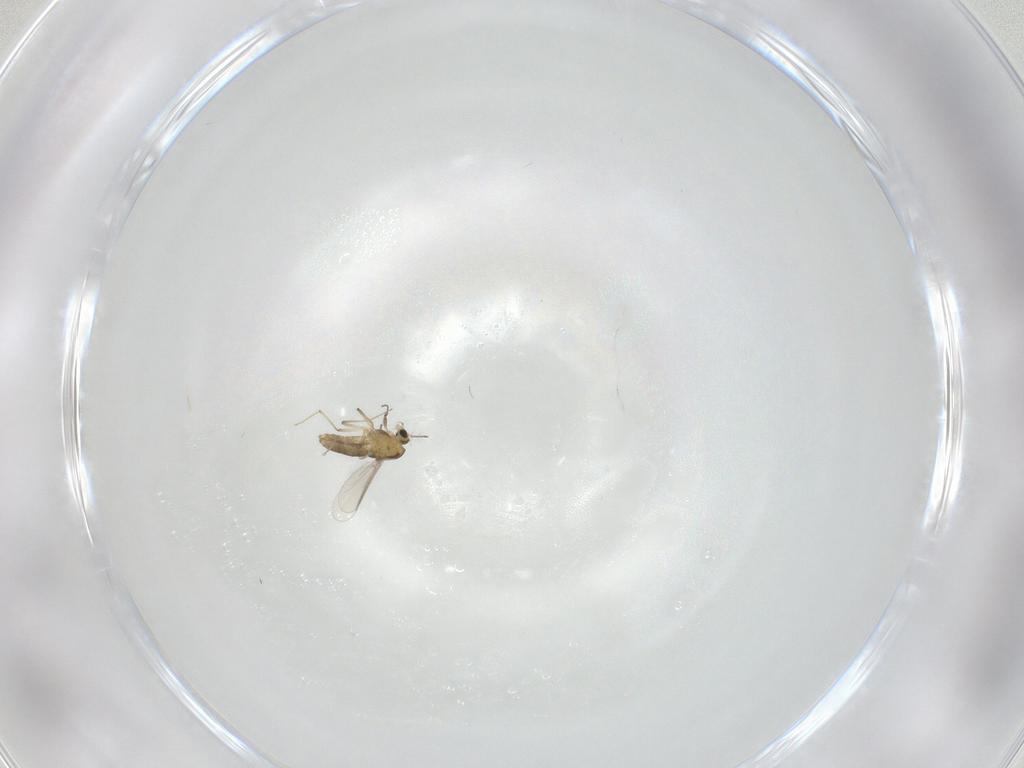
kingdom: Animalia
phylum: Arthropoda
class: Insecta
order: Diptera
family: Chironomidae
